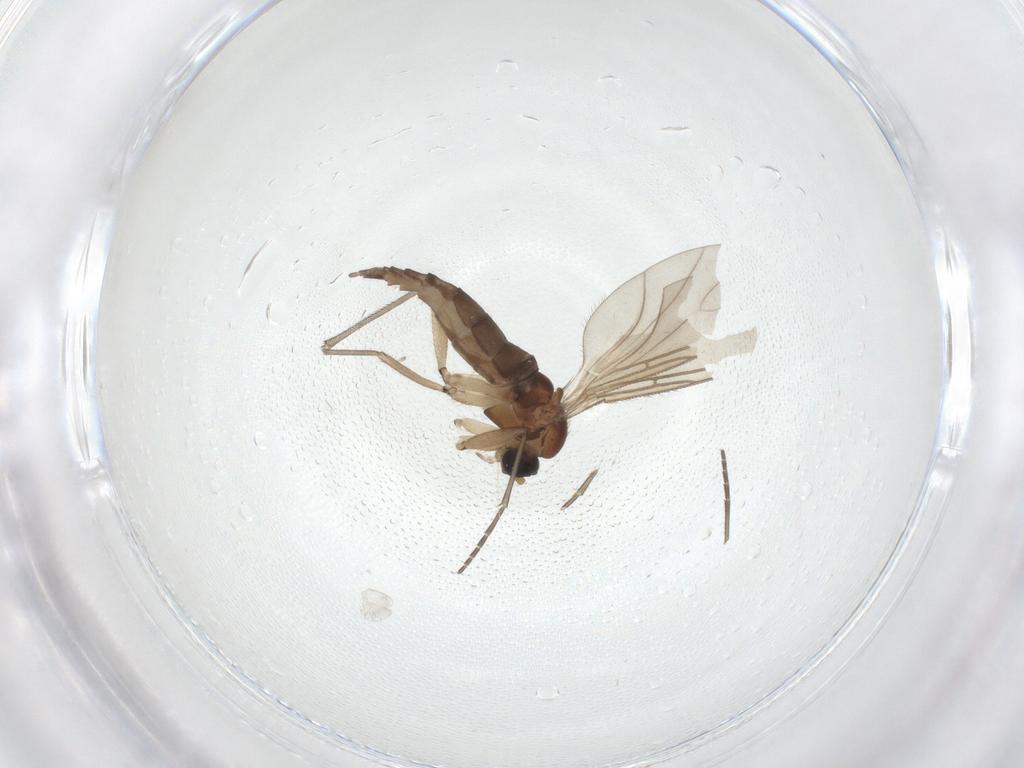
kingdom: Animalia
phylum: Arthropoda
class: Insecta
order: Diptera
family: Sciaridae
